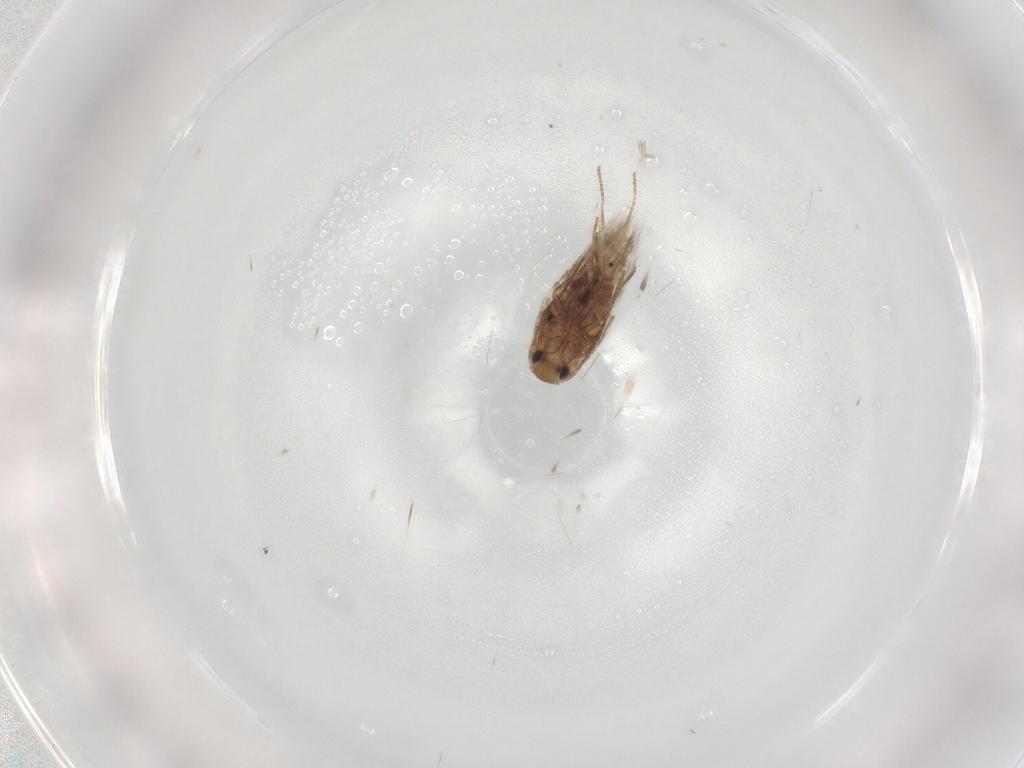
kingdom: Animalia
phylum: Arthropoda
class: Insecta
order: Lepidoptera
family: Nymphalidae
